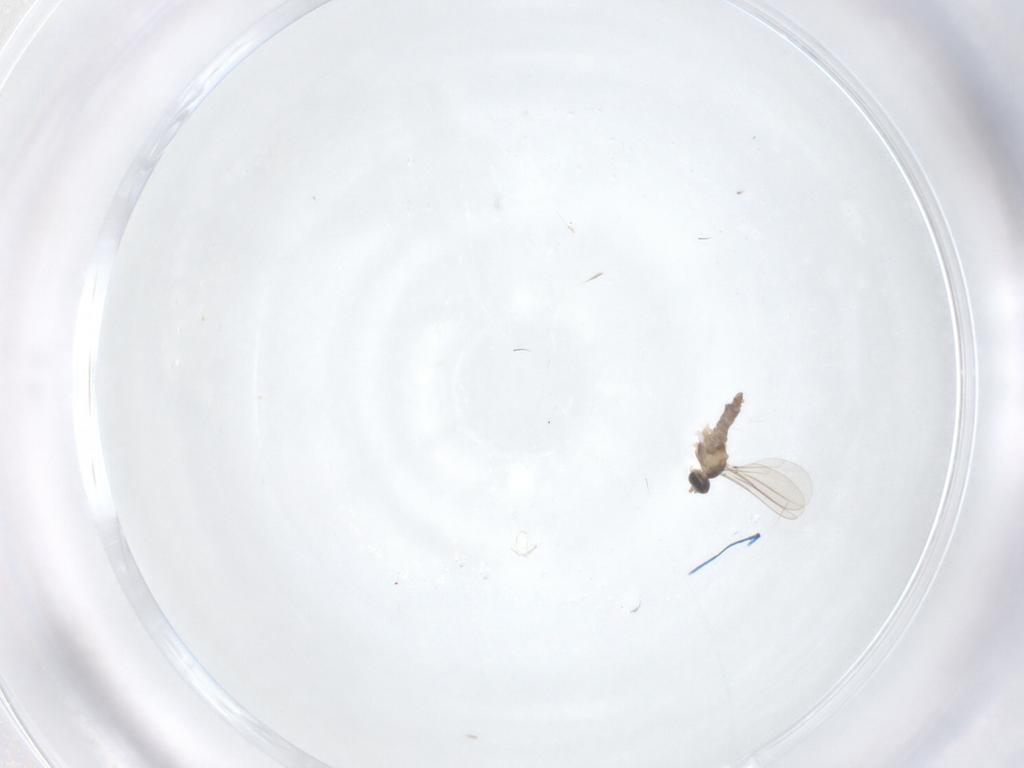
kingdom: Animalia
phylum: Arthropoda
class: Insecta
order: Diptera
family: Cecidomyiidae
